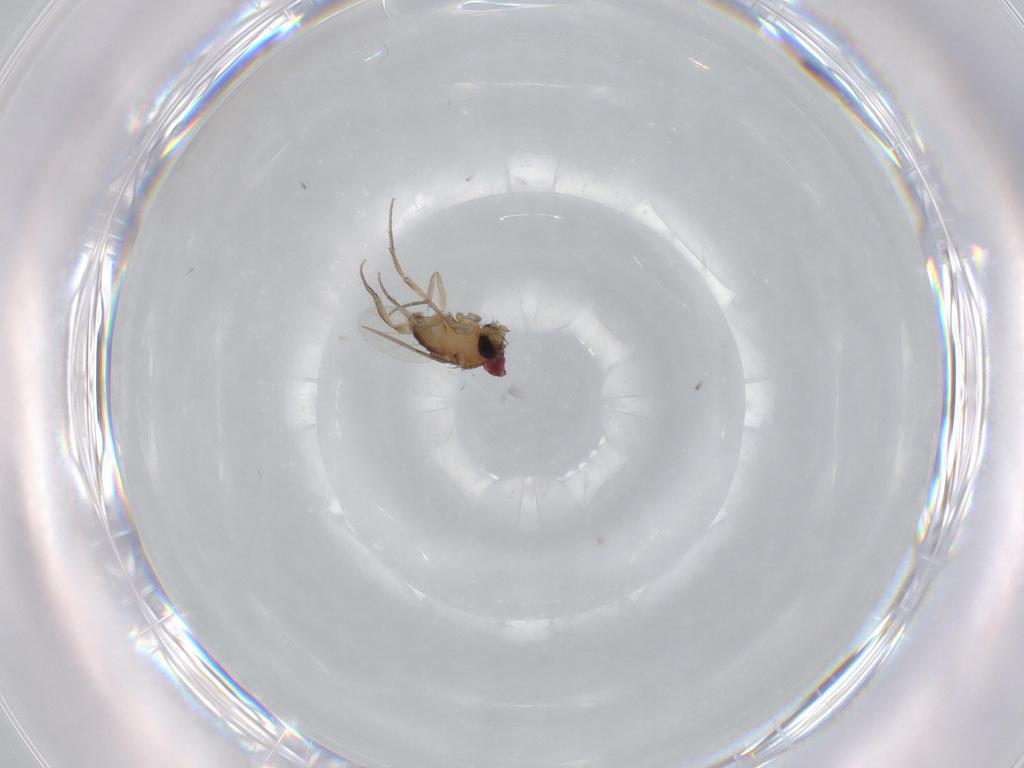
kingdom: Animalia
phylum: Arthropoda
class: Insecta
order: Diptera
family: Phoridae
